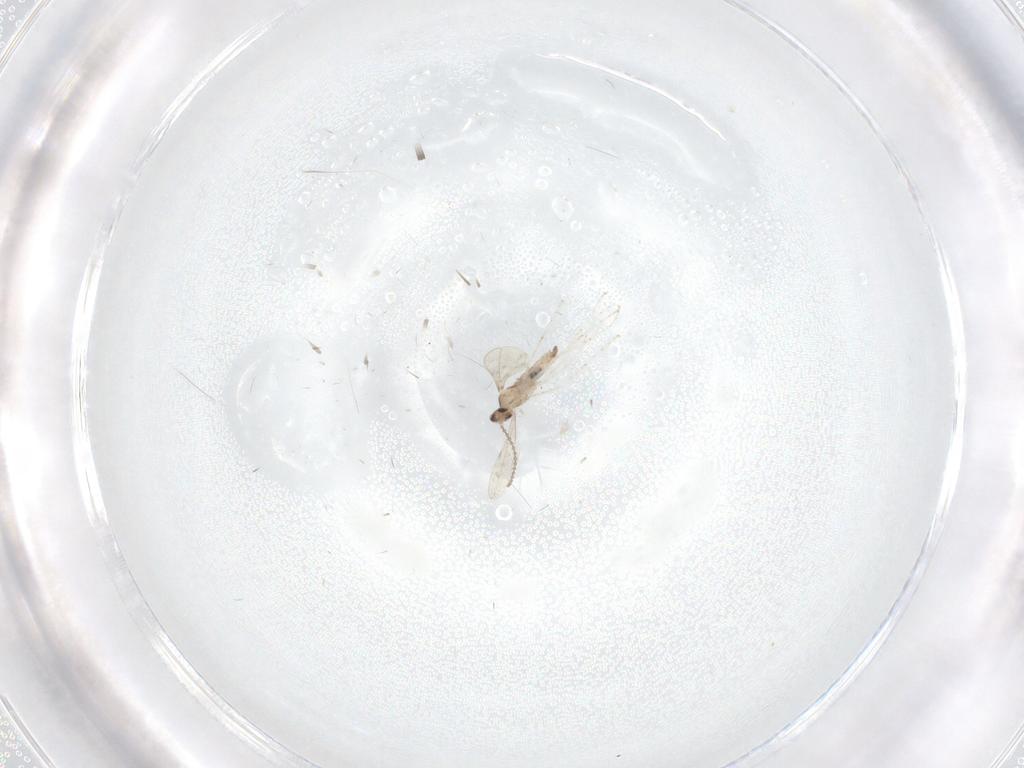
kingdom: Animalia
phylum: Arthropoda
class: Insecta
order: Diptera
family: Cecidomyiidae
